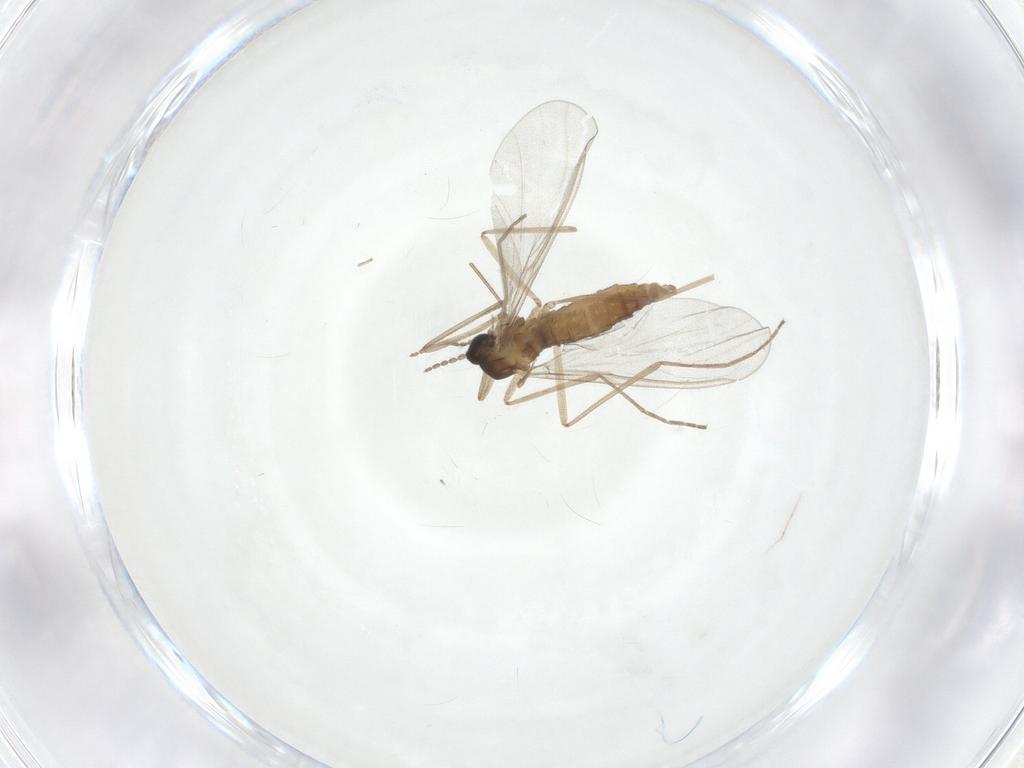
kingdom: Animalia
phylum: Arthropoda
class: Insecta
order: Diptera
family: Cecidomyiidae
